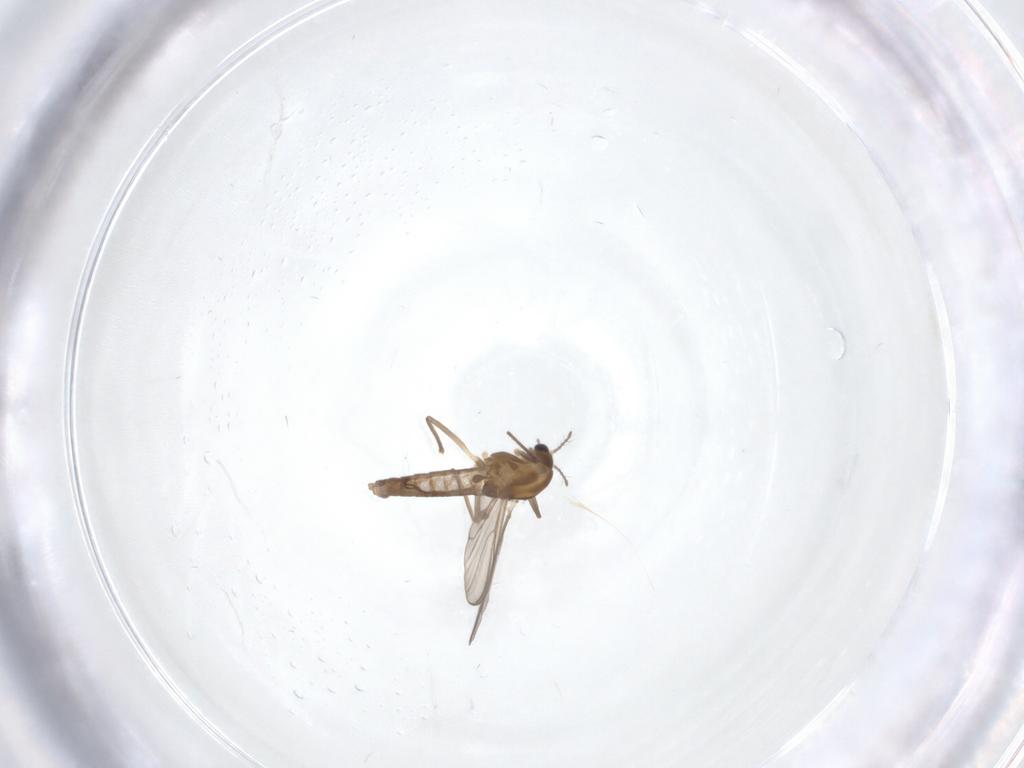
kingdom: Animalia
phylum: Arthropoda
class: Insecta
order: Diptera
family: Chironomidae
